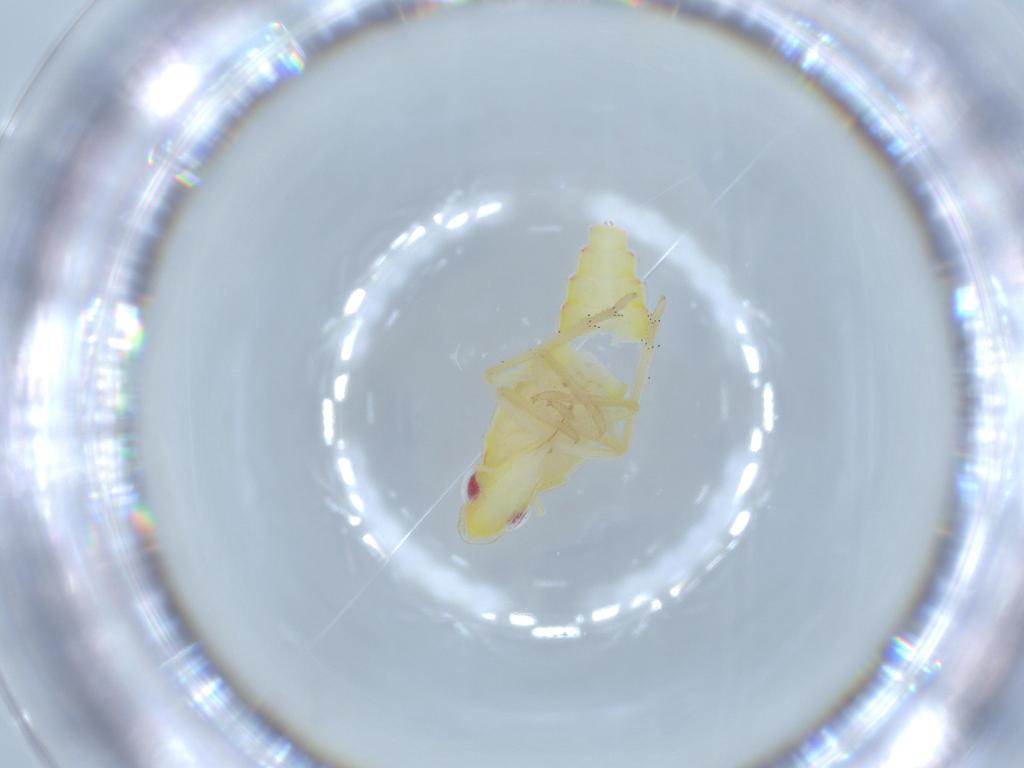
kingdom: Animalia
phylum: Arthropoda
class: Insecta
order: Hemiptera
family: Tropiduchidae
